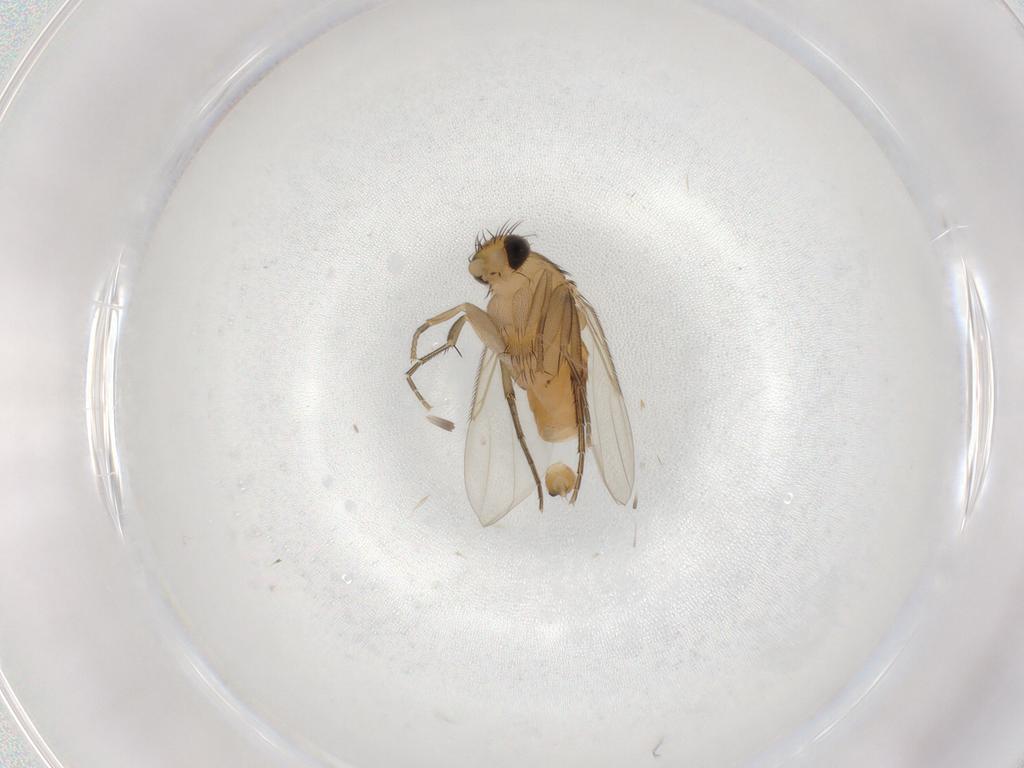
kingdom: Animalia
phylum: Arthropoda
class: Insecta
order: Diptera
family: Phoridae
